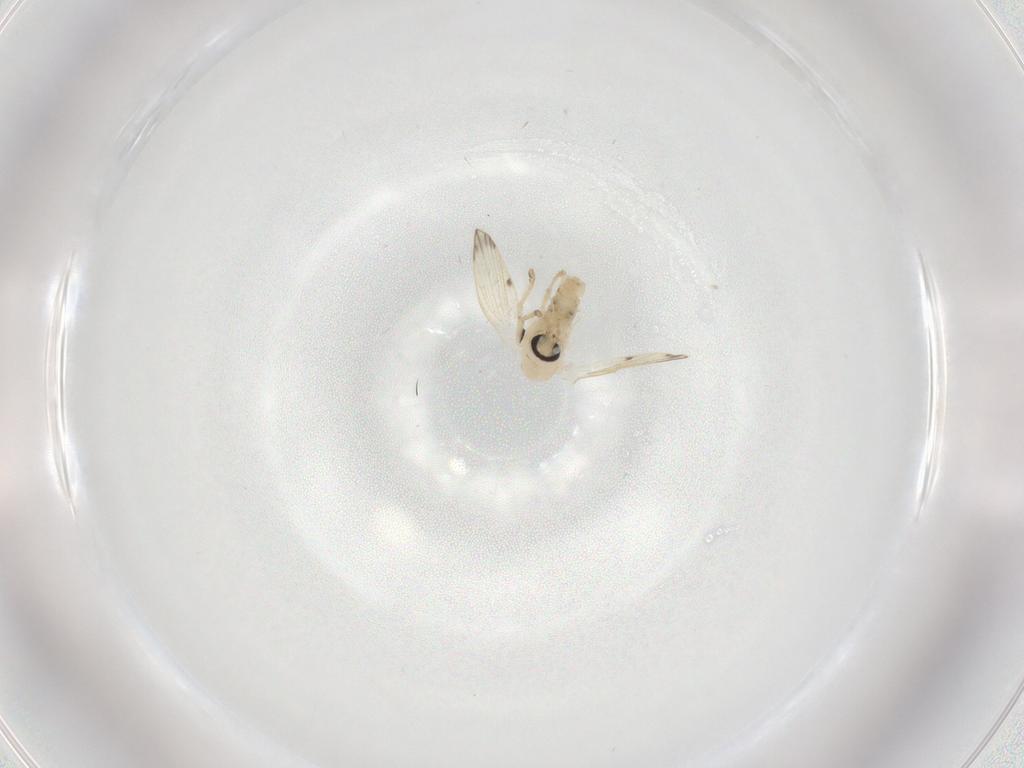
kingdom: Animalia
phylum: Arthropoda
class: Insecta
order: Diptera
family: Psychodidae
